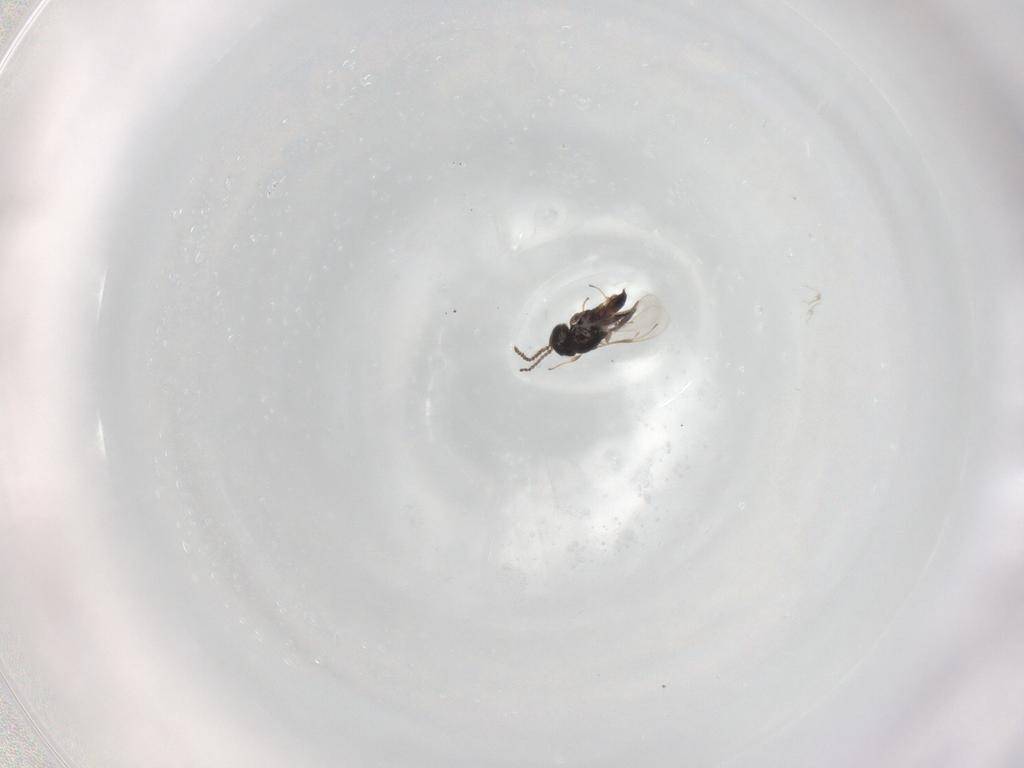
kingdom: Animalia
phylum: Arthropoda
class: Insecta
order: Hymenoptera
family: Scelionidae
